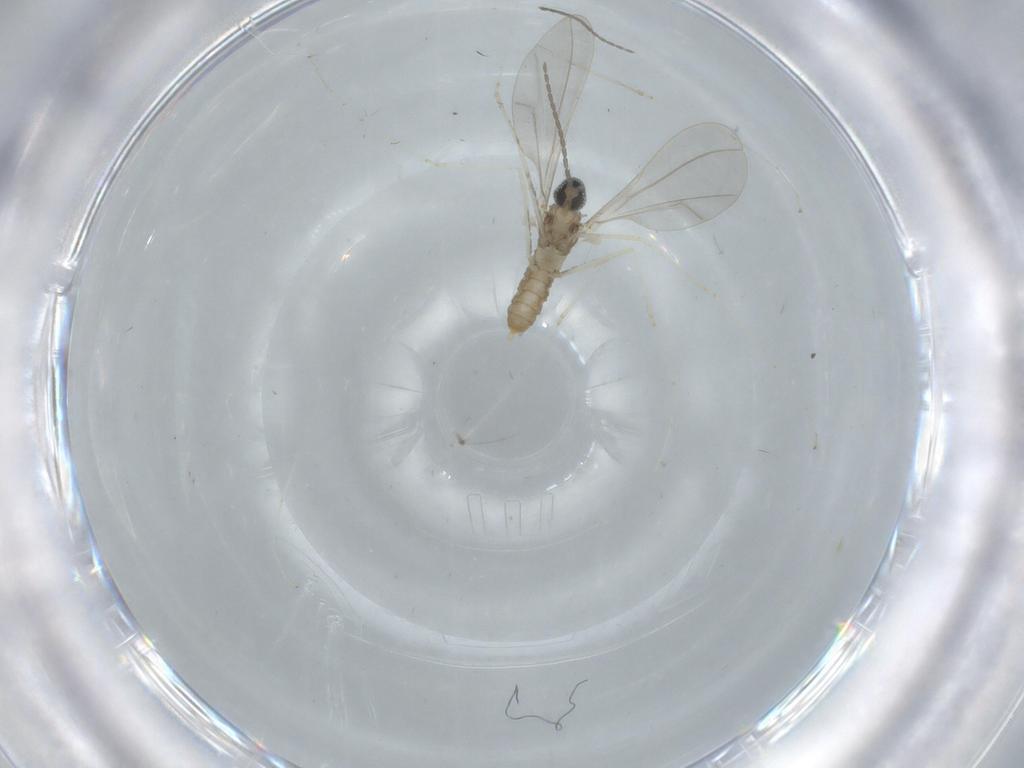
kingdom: Animalia
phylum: Arthropoda
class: Insecta
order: Diptera
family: Cecidomyiidae
